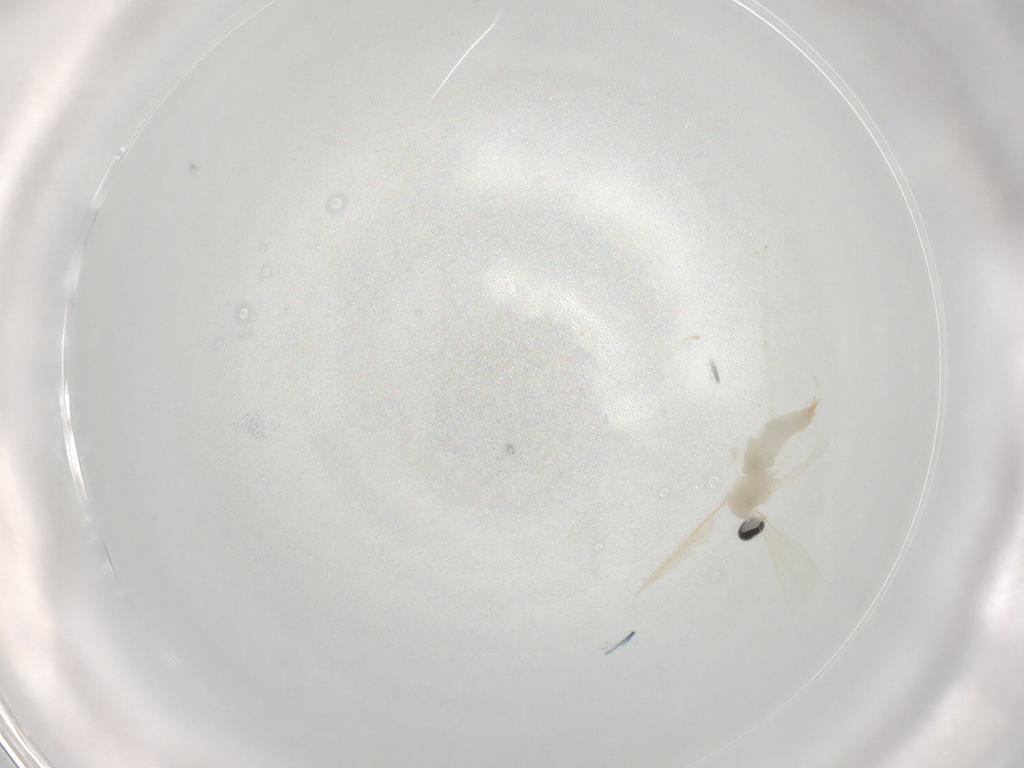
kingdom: Animalia
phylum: Arthropoda
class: Insecta
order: Diptera
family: Cecidomyiidae
